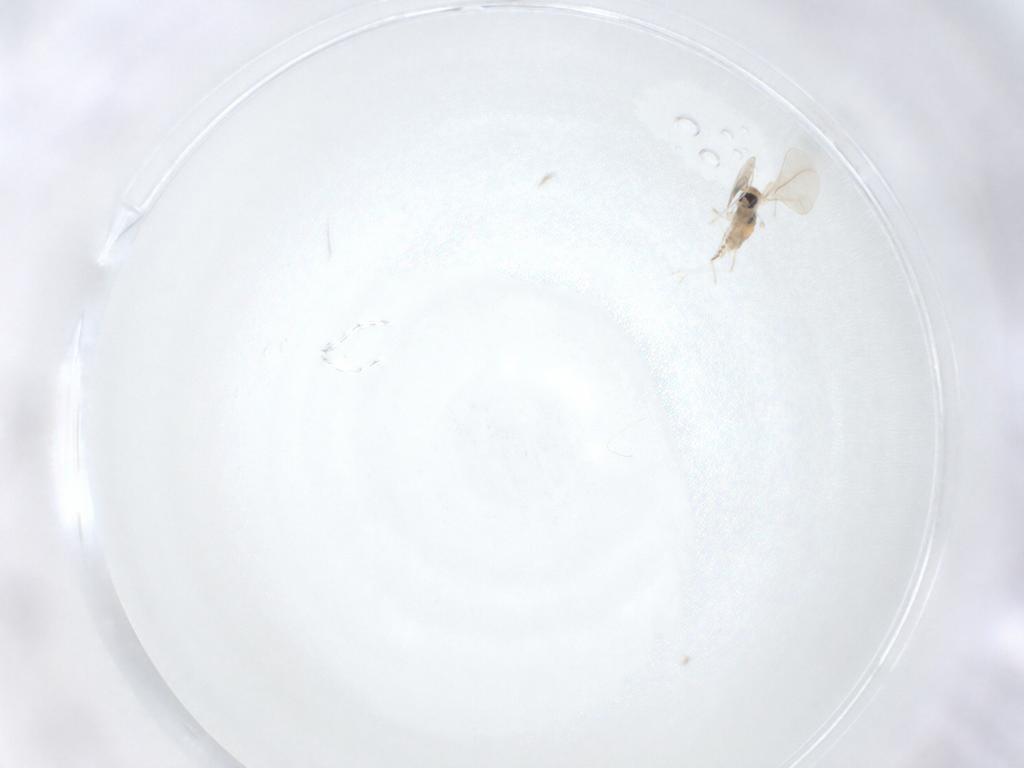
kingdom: Animalia
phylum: Arthropoda
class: Insecta
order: Diptera
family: Cecidomyiidae
